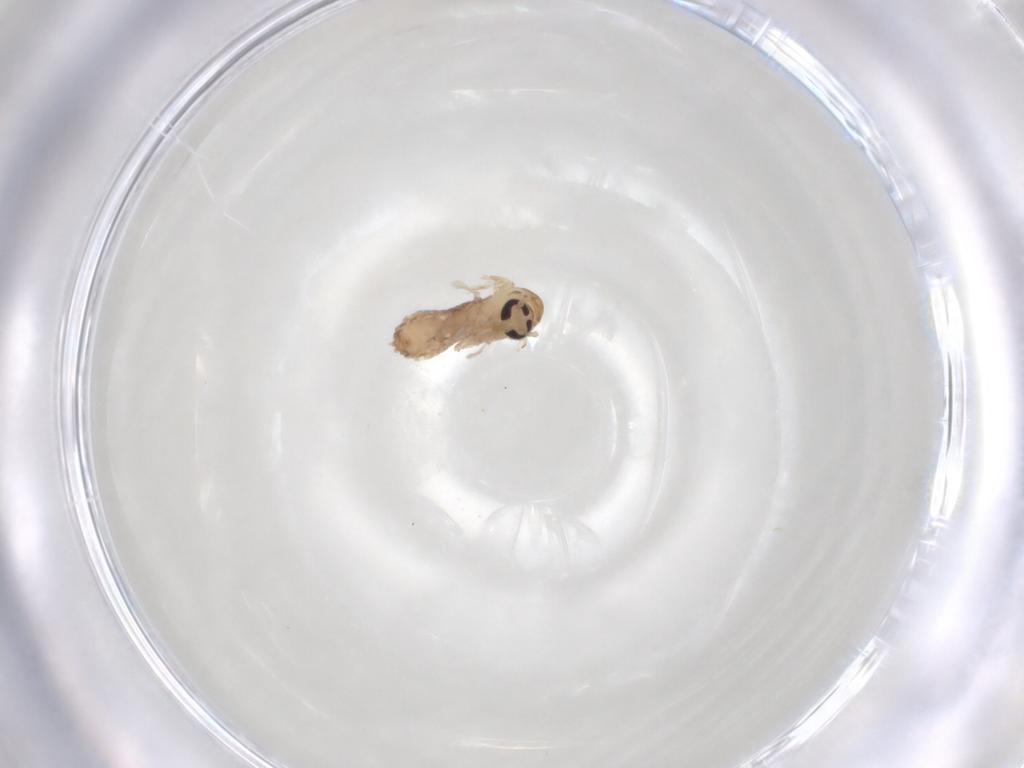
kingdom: Animalia
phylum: Arthropoda
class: Insecta
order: Diptera
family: Psychodidae
